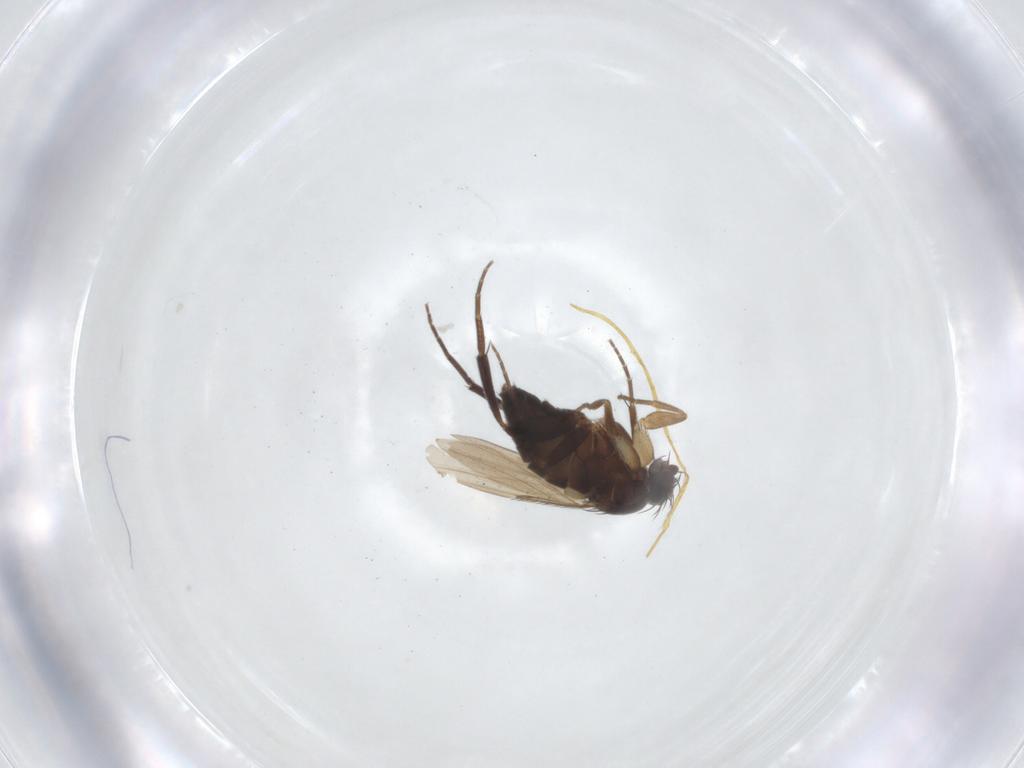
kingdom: Animalia
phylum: Arthropoda
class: Insecta
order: Diptera
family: Phoridae
